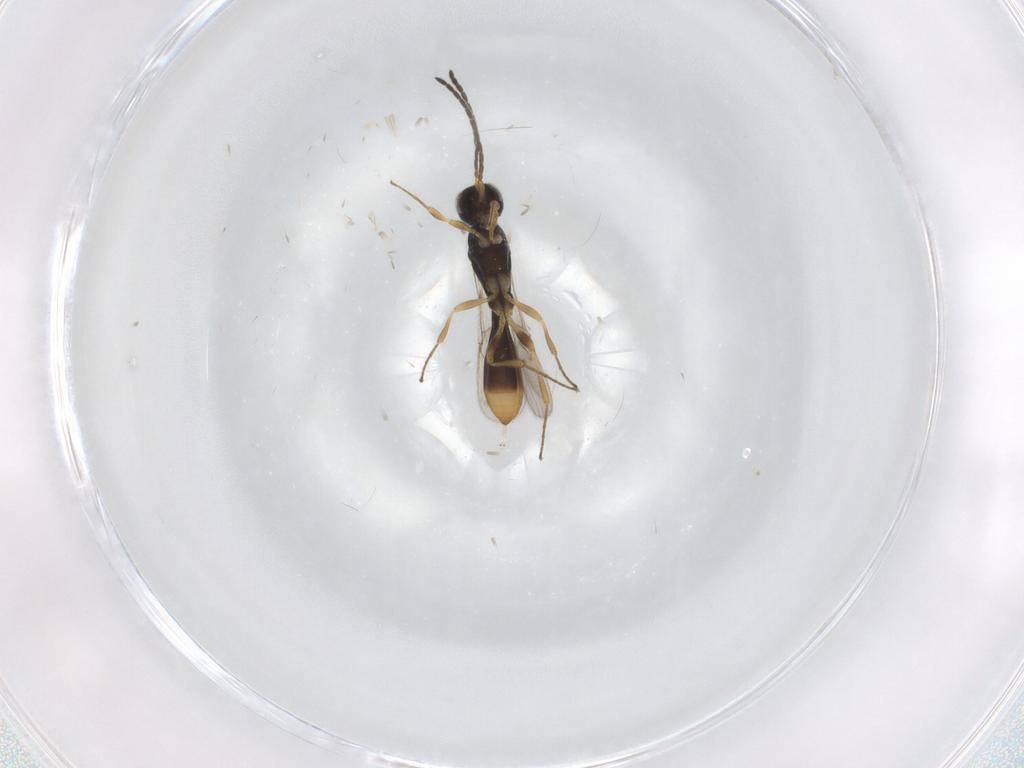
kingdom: Animalia
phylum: Arthropoda
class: Insecta
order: Hymenoptera
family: Scelionidae
